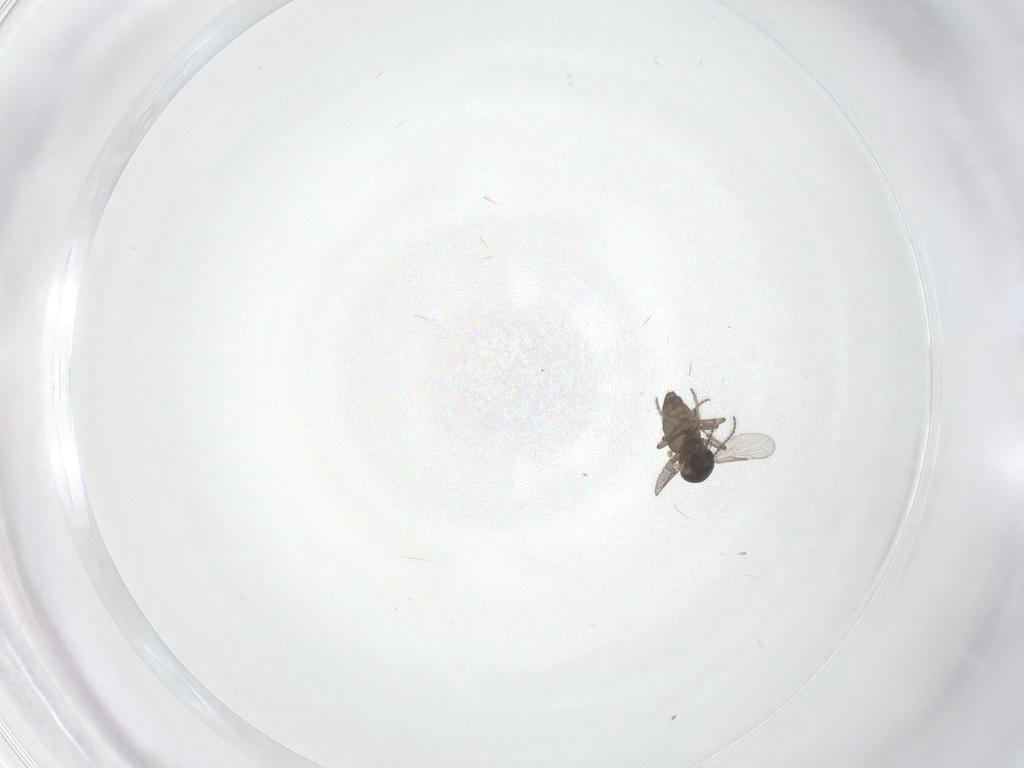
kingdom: Animalia
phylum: Arthropoda
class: Insecta
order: Diptera
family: Ceratopogonidae
